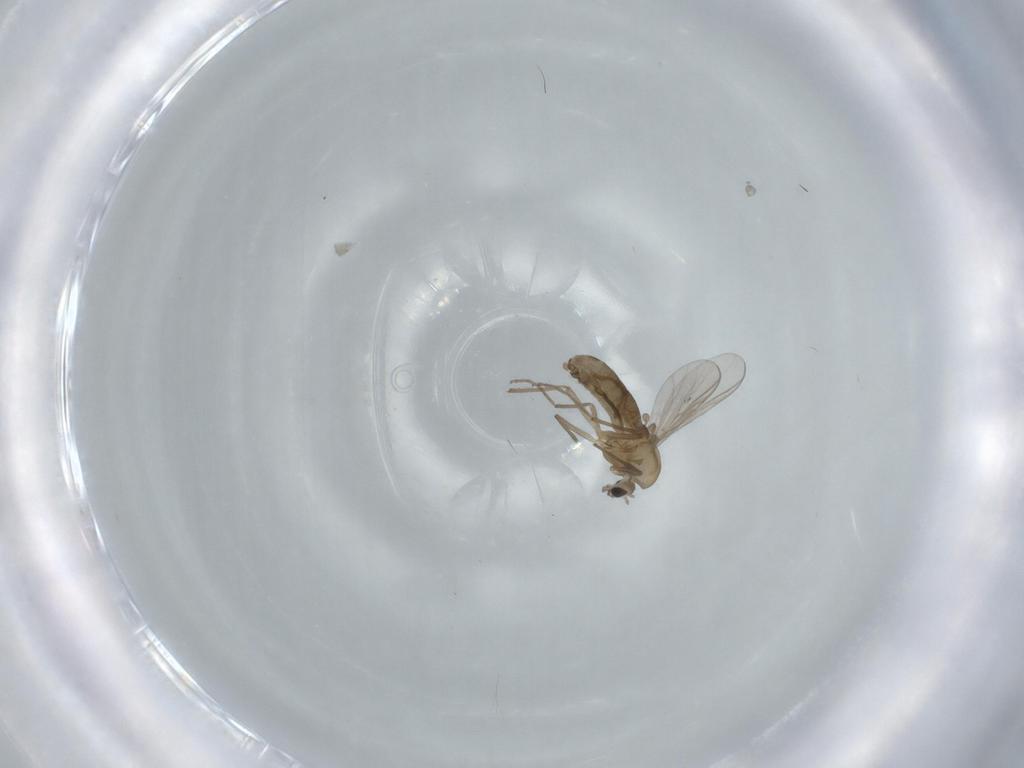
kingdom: Animalia
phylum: Arthropoda
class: Insecta
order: Diptera
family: Chironomidae
